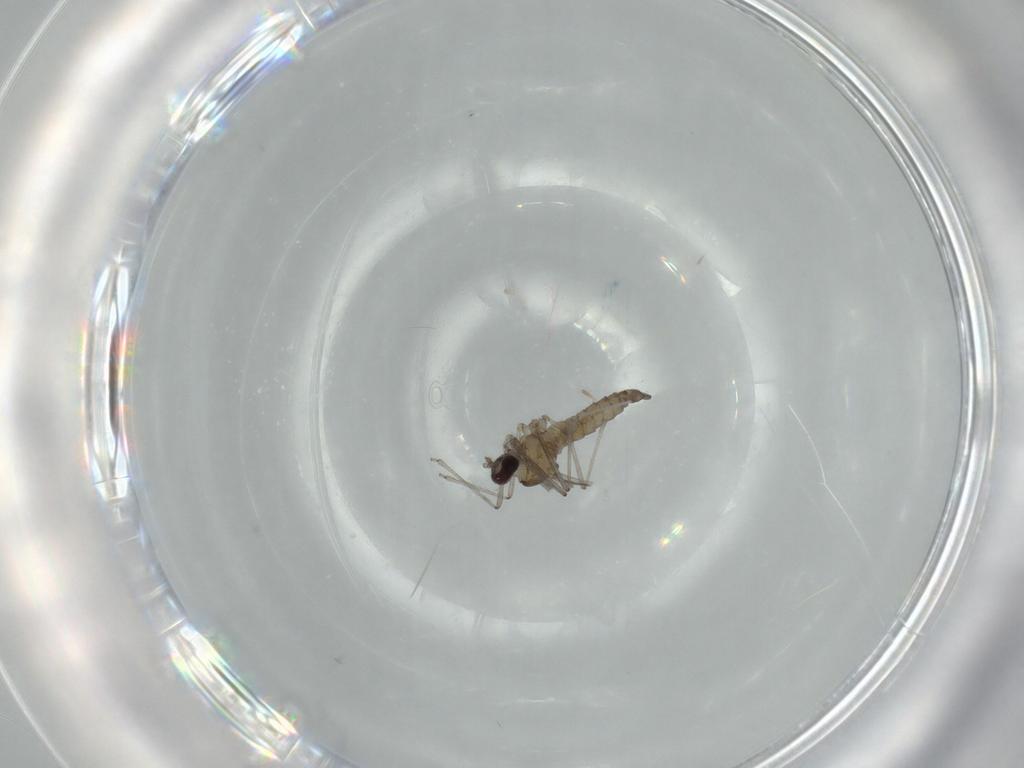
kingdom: Animalia
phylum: Arthropoda
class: Insecta
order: Diptera
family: Cecidomyiidae
